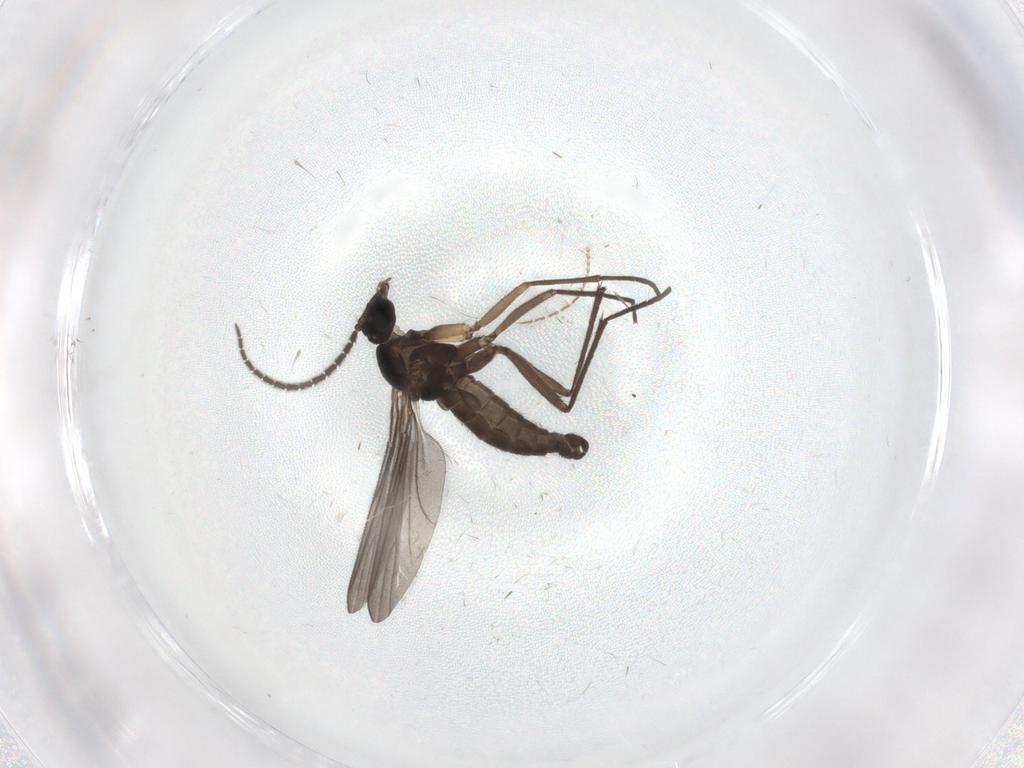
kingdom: Animalia
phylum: Arthropoda
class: Insecta
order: Diptera
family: Sciaridae
